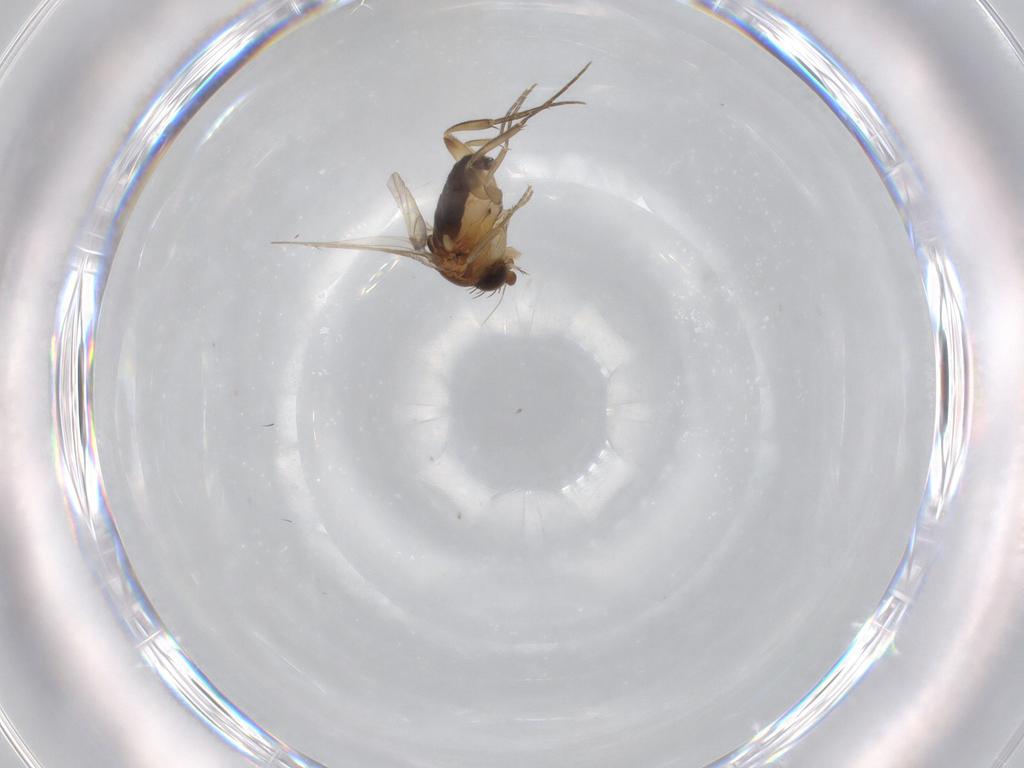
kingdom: Animalia
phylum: Arthropoda
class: Insecta
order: Diptera
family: Phoridae
